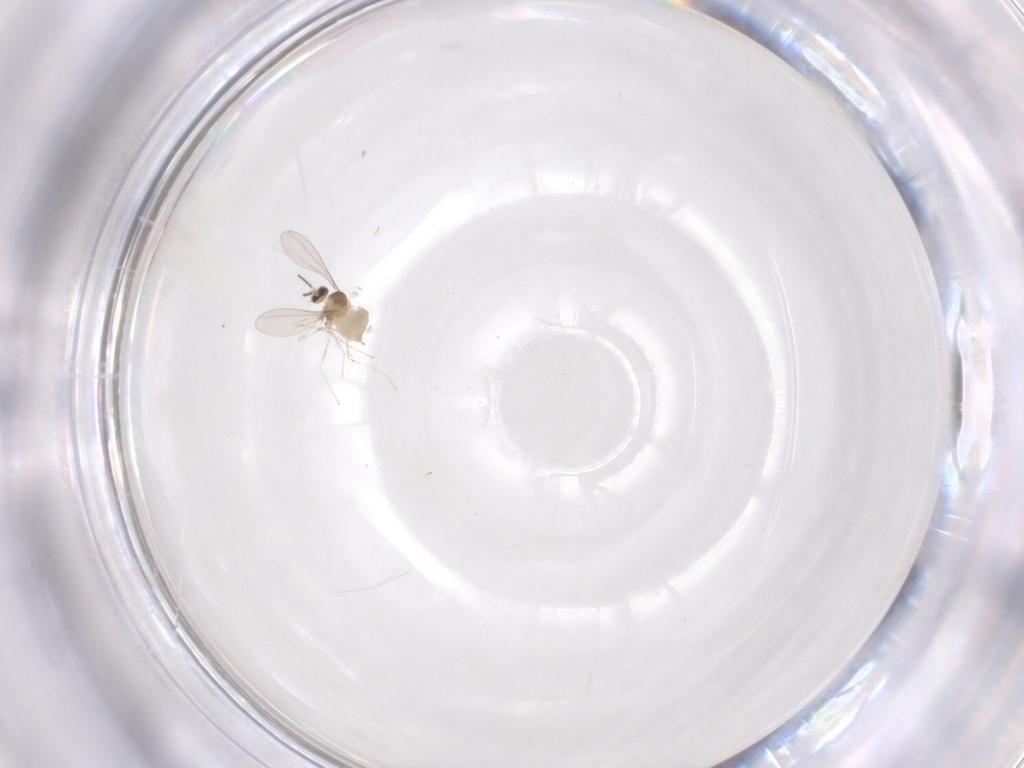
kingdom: Animalia
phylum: Arthropoda
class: Insecta
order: Diptera
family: Cecidomyiidae
